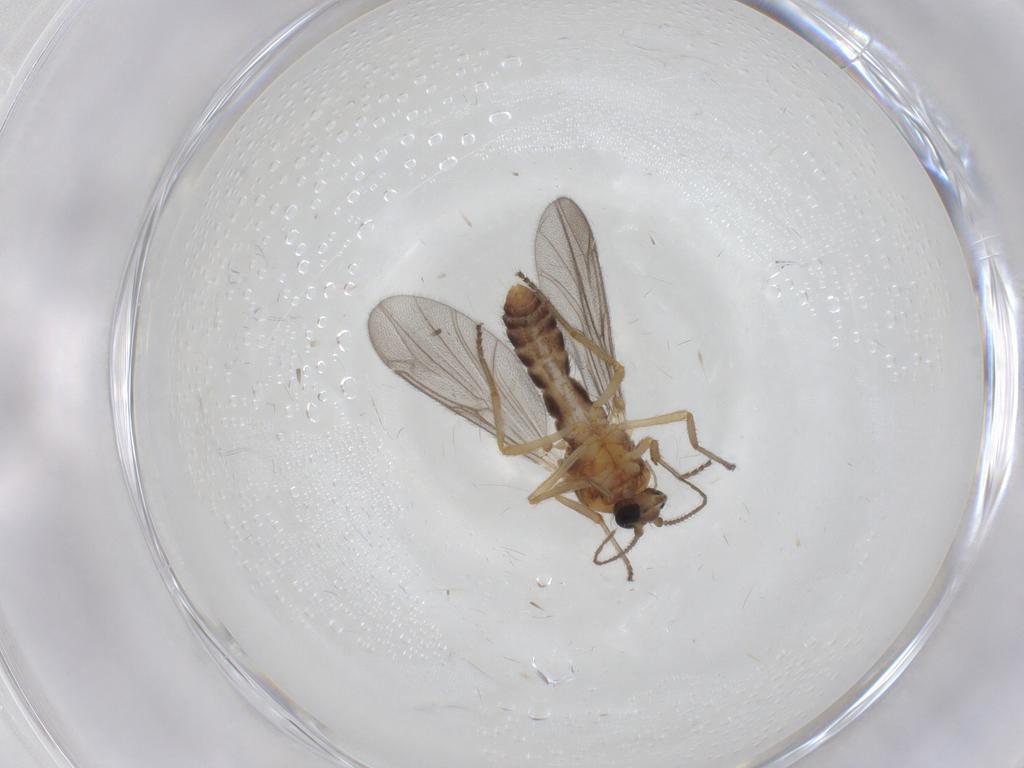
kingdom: Animalia
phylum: Arthropoda
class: Insecta
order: Diptera
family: Ceratopogonidae
